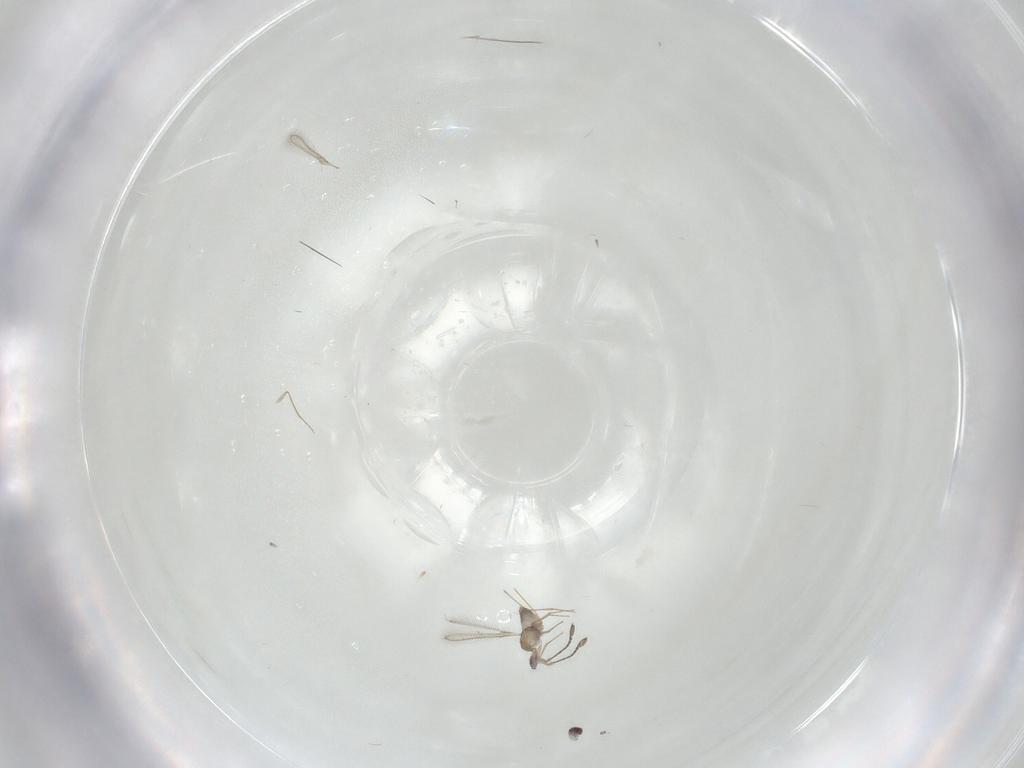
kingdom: Animalia
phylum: Arthropoda
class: Insecta
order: Hymenoptera
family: Mymaridae
